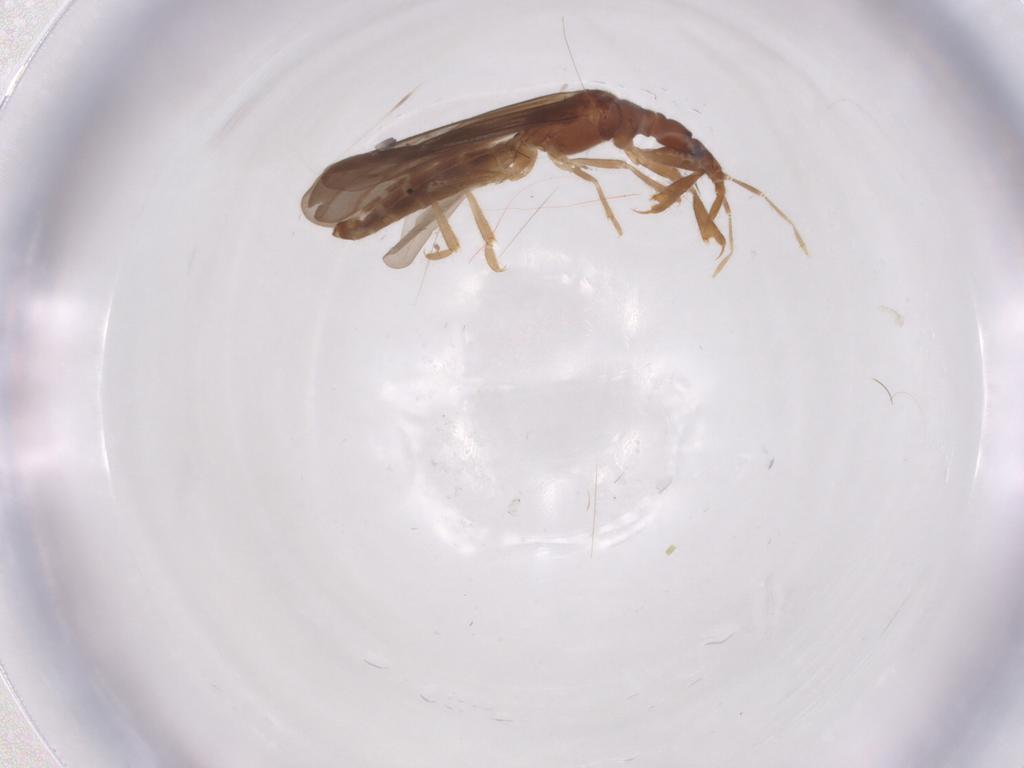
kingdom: Animalia
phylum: Arthropoda
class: Insecta
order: Hemiptera
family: Enicocephalidae
